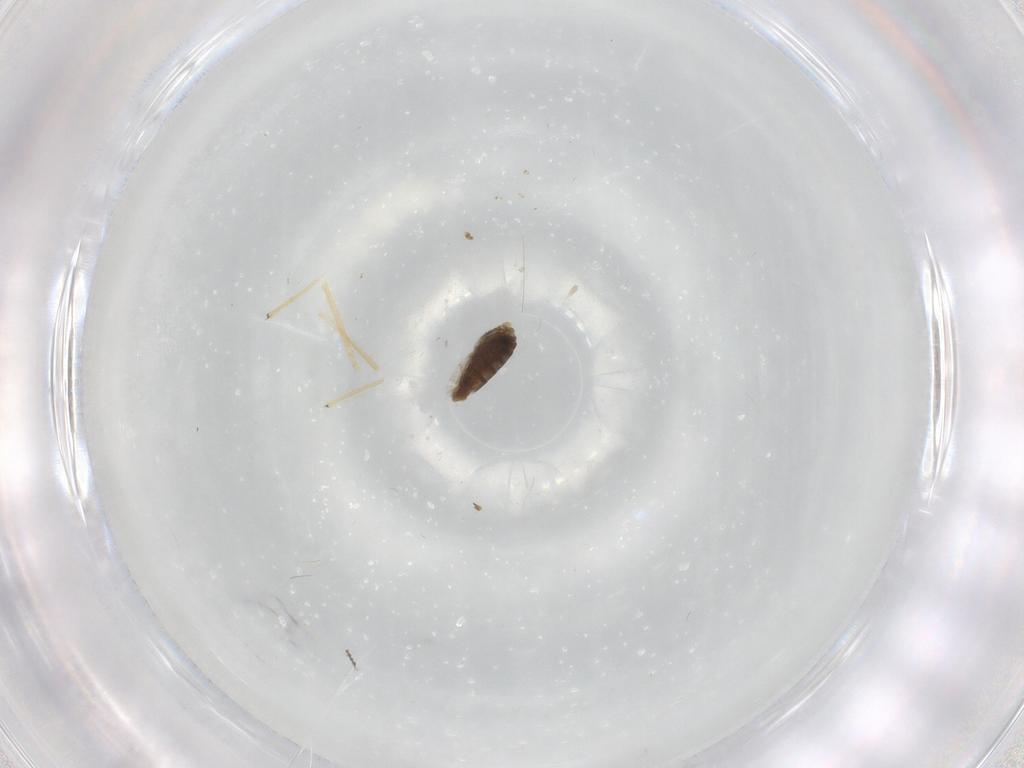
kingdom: Animalia
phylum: Arthropoda
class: Insecta
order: Diptera
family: Chironomidae
